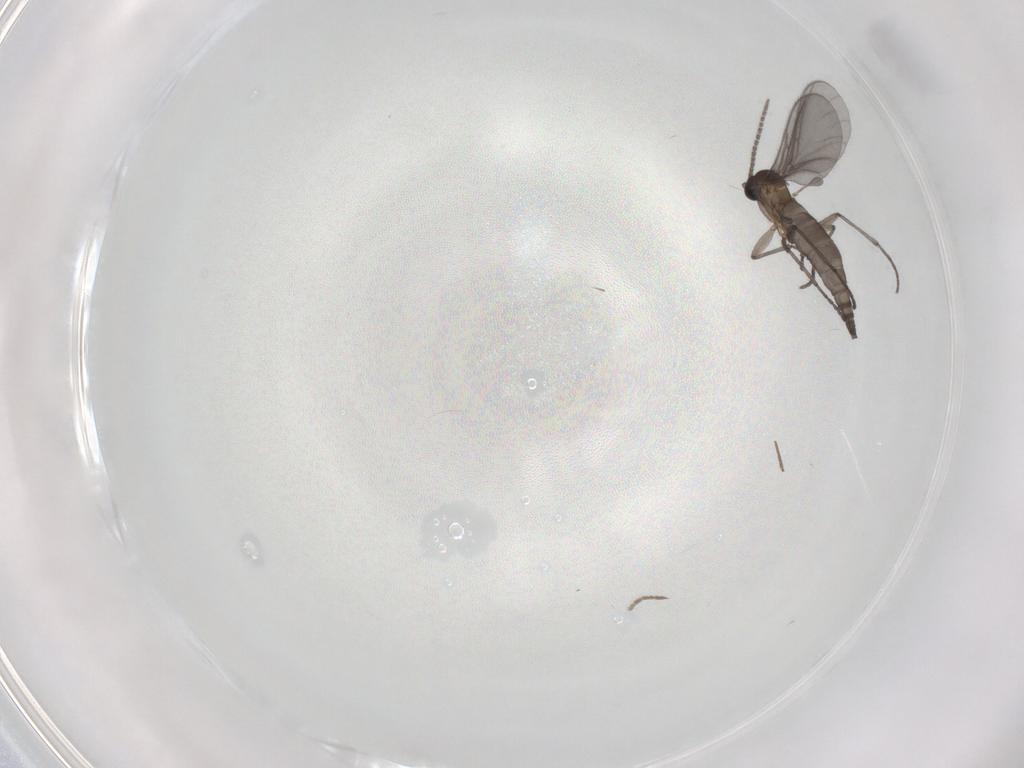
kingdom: Animalia
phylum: Arthropoda
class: Insecta
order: Diptera
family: Sciaridae
